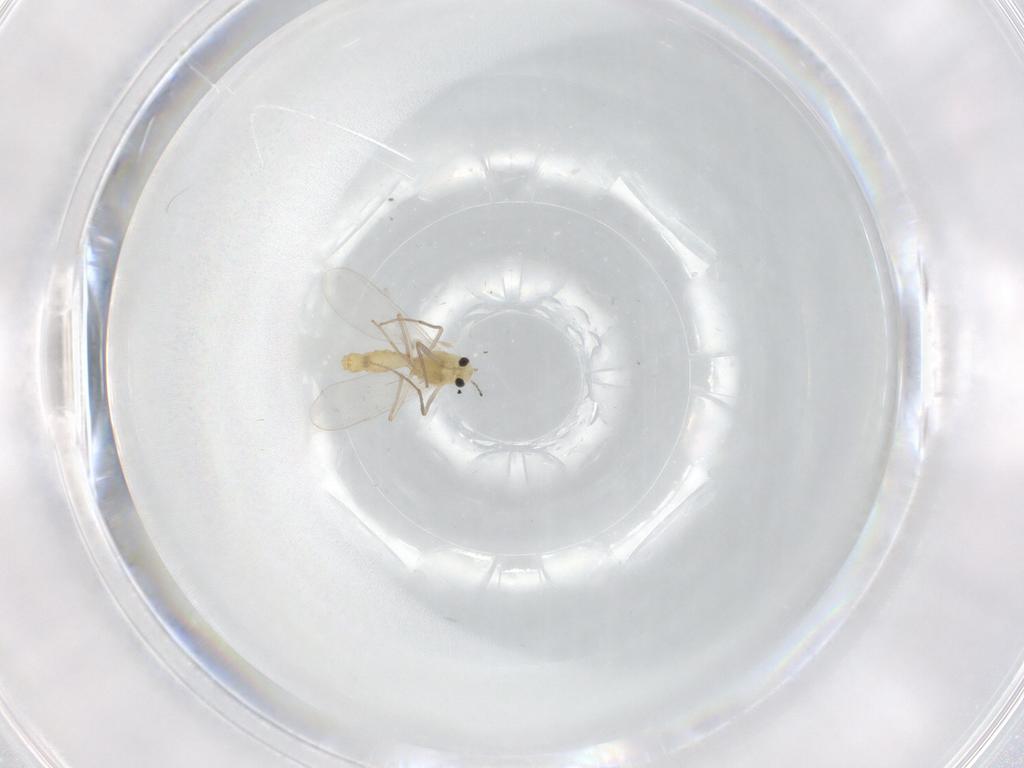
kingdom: Animalia
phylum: Arthropoda
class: Insecta
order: Diptera
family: Chironomidae
